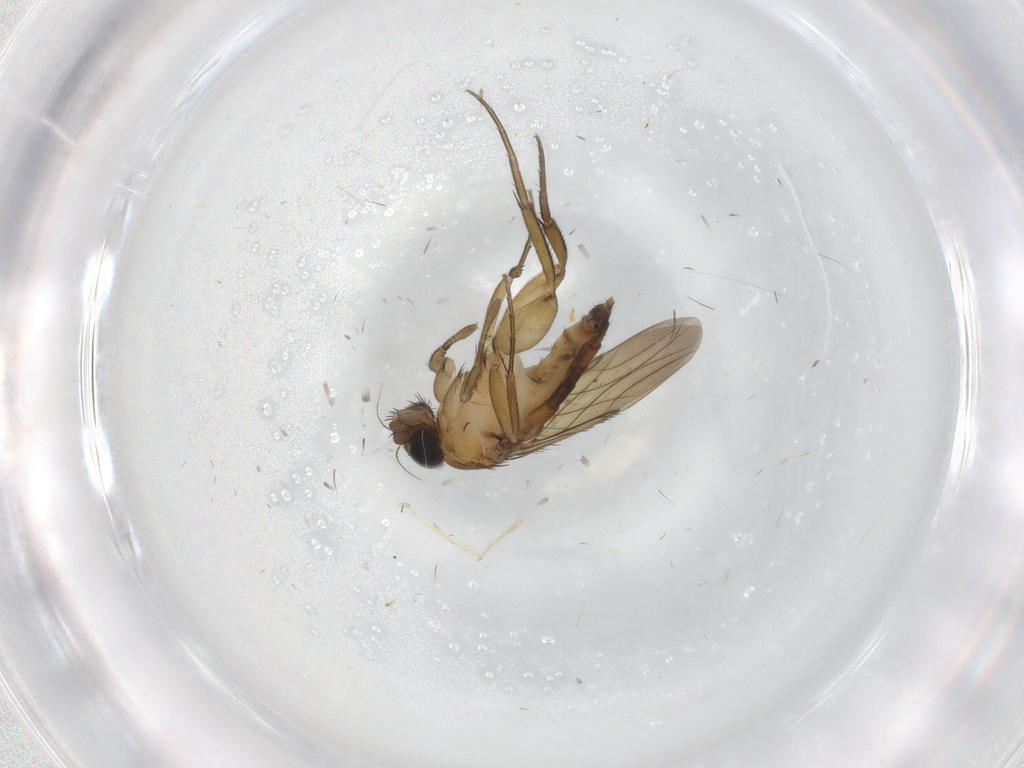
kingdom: Animalia
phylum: Arthropoda
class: Insecta
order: Diptera
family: Phoridae
